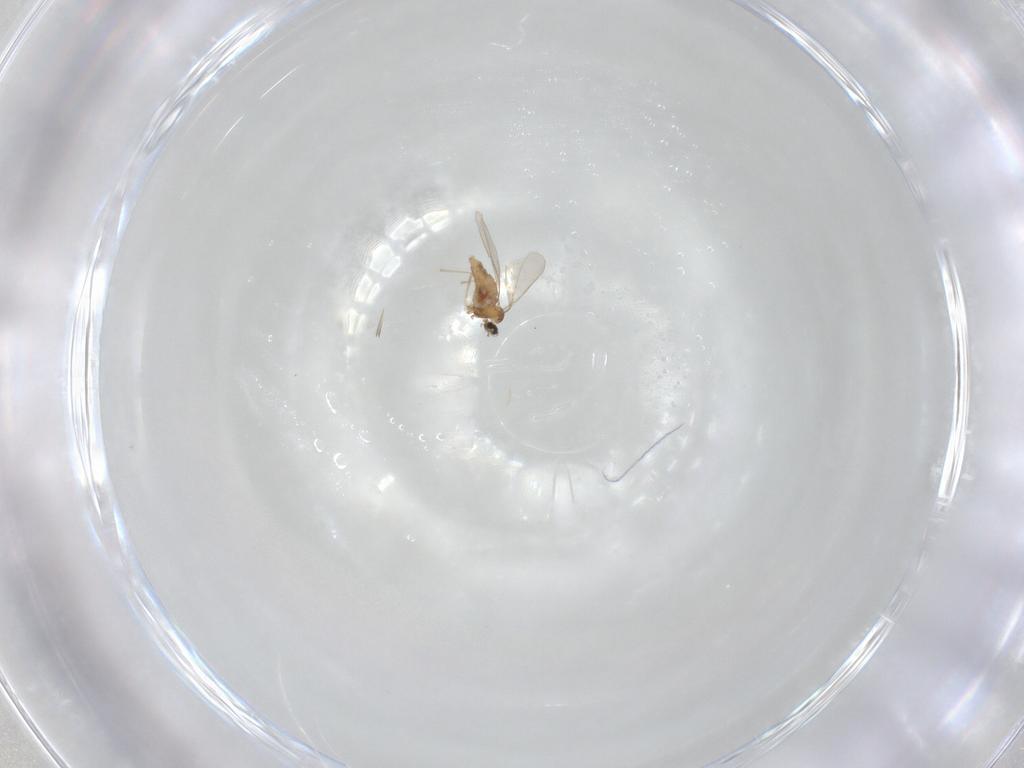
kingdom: Animalia
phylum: Arthropoda
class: Insecta
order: Diptera
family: Cecidomyiidae
